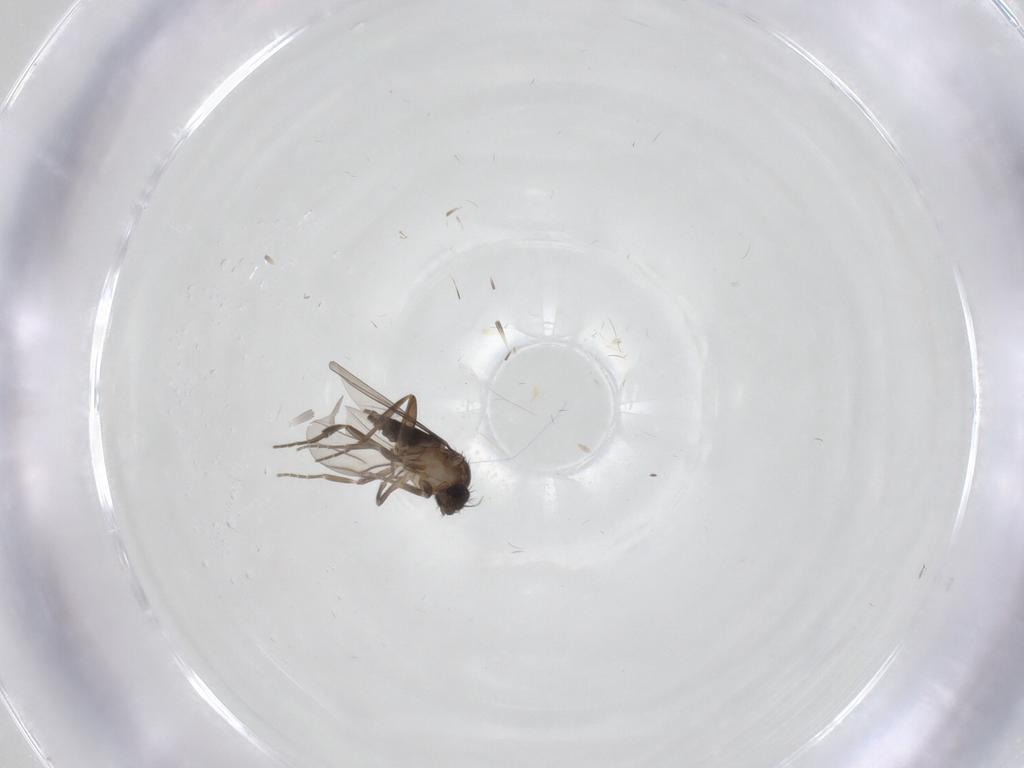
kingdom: Animalia
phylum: Arthropoda
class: Insecta
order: Diptera
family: Phoridae
